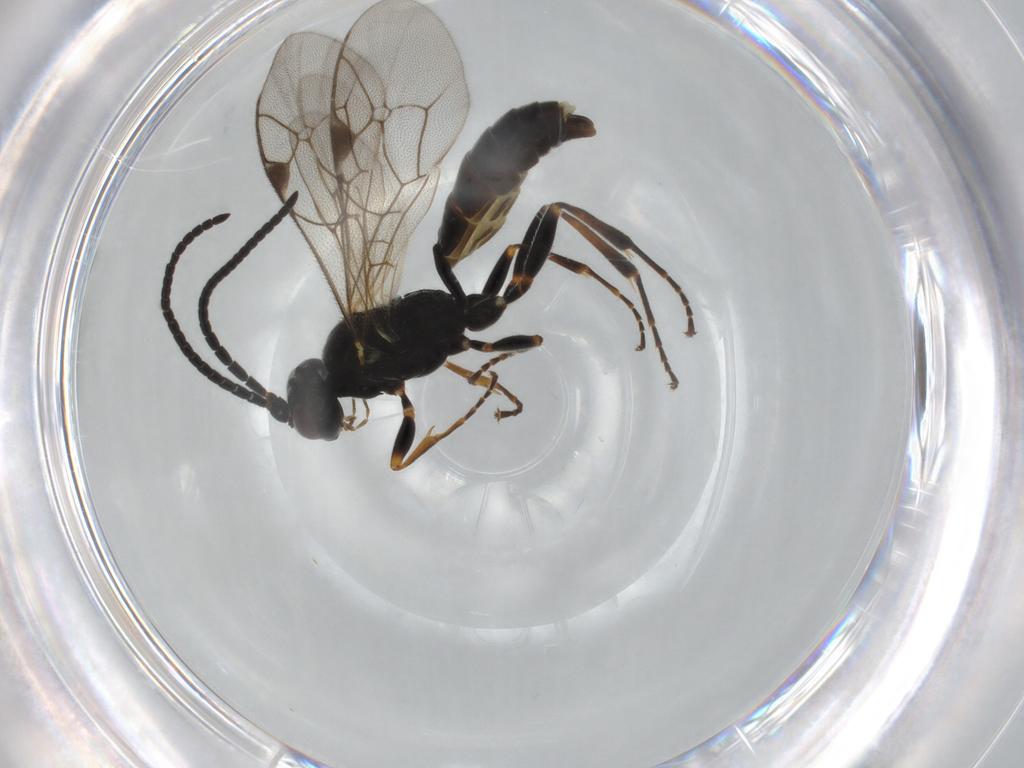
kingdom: Animalia
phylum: Arthropoda
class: Insecta
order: Hymenoptera
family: Ichneumonidae
